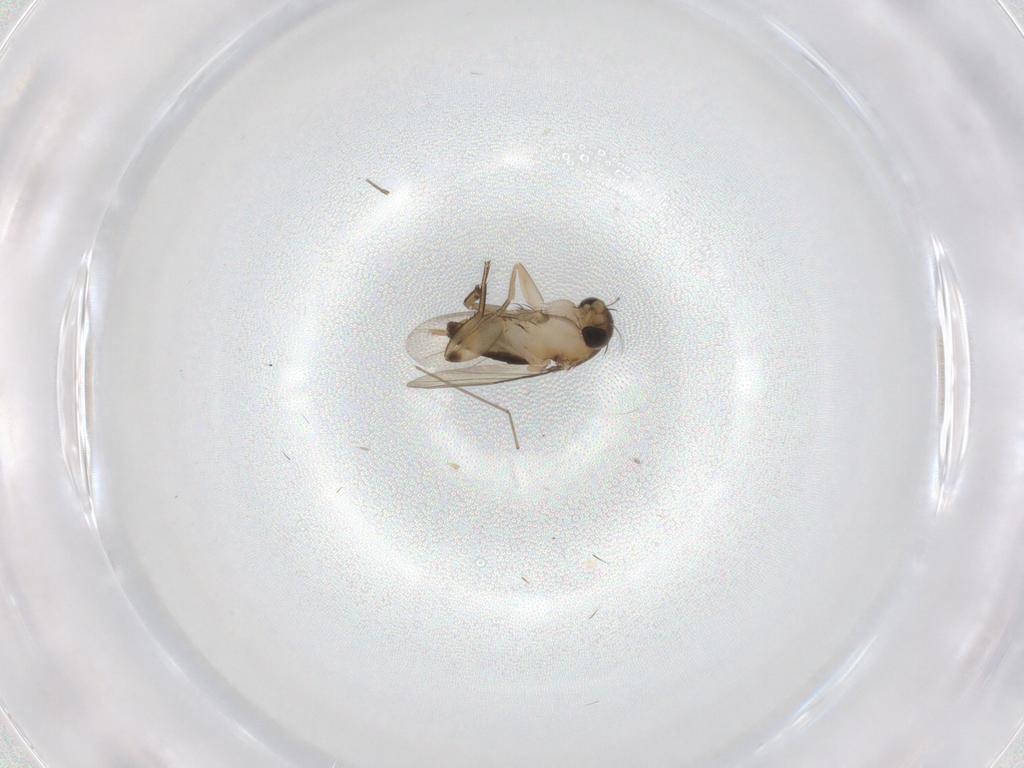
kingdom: Animalia
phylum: Arthropoda
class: Insecta
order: Diptera
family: Phoridae
